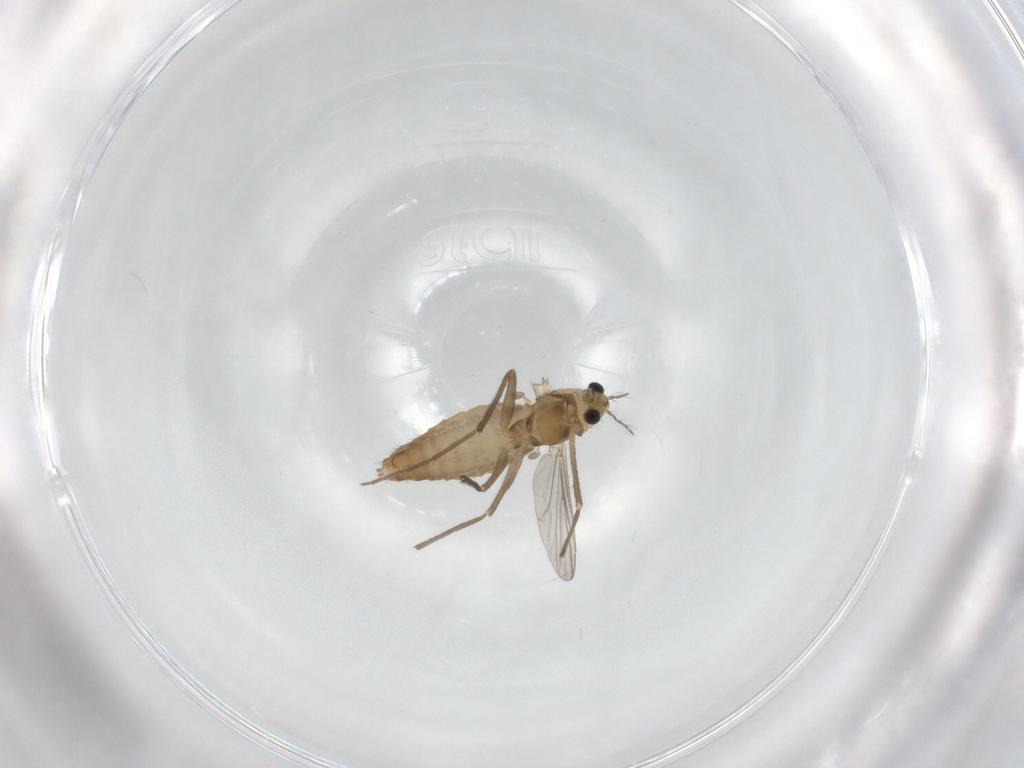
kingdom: Animalia
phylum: Arthropoda
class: Insecta
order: Diptera
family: Chironomidae
